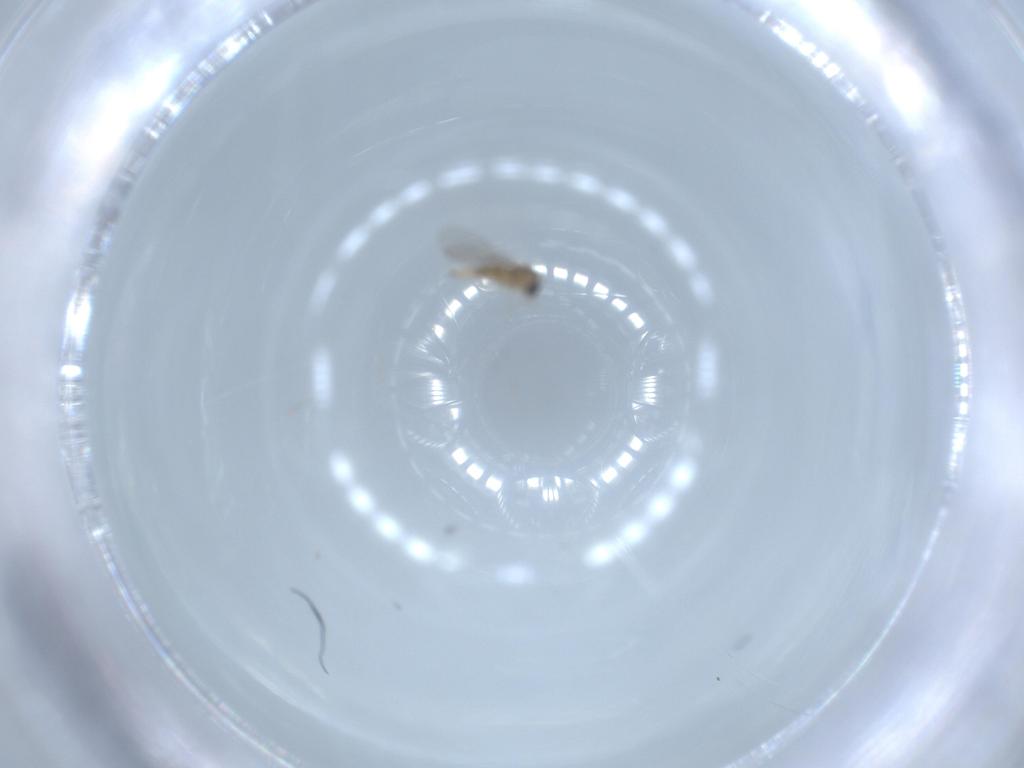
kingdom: Animalia
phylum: Arthropoda
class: Insecta
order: Diptera
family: Cecidomyiidae
